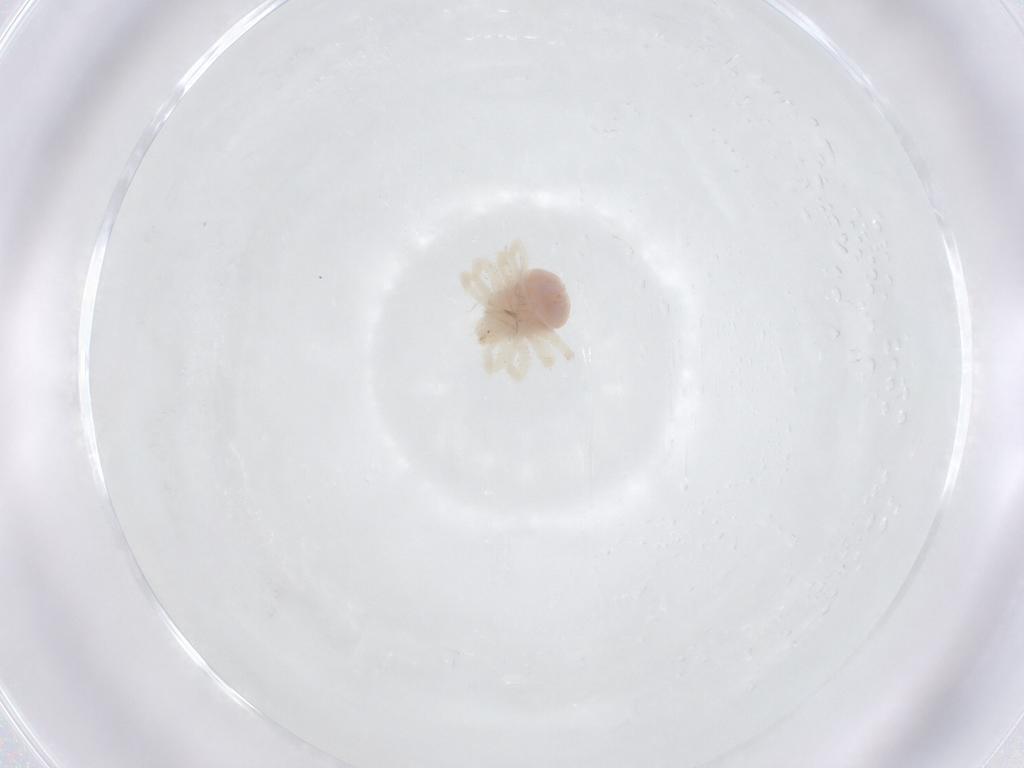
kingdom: Animalia
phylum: Arthropoda
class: Arachnida
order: Trombidiformes
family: Anystidae
